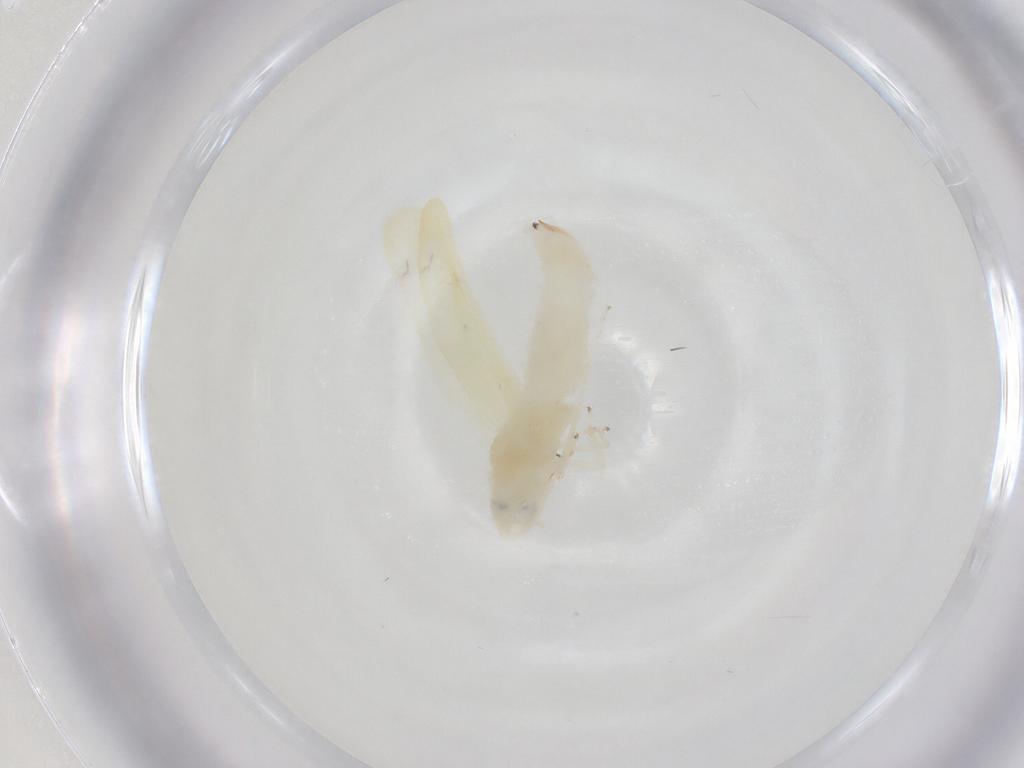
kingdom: Animalia
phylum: Arthropoda
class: Insecta
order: Hemiptera
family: Cicadellidae
